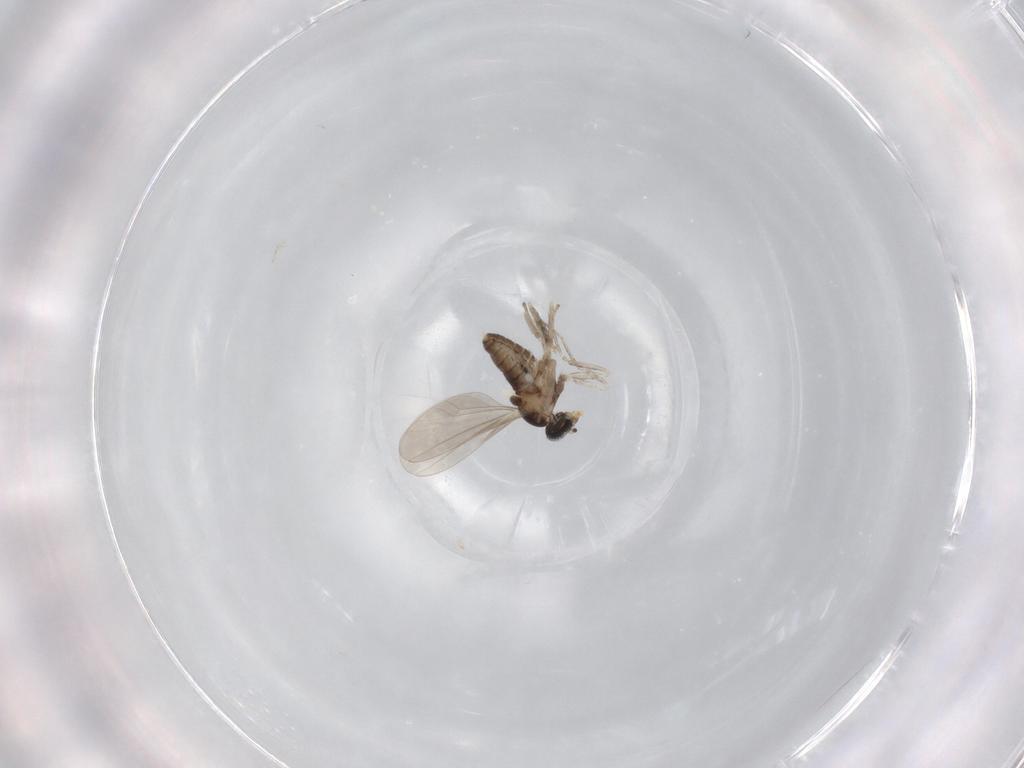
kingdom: Animalia
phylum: Arthropoda
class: Insecta
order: Diptera
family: Cecidomyiidae
